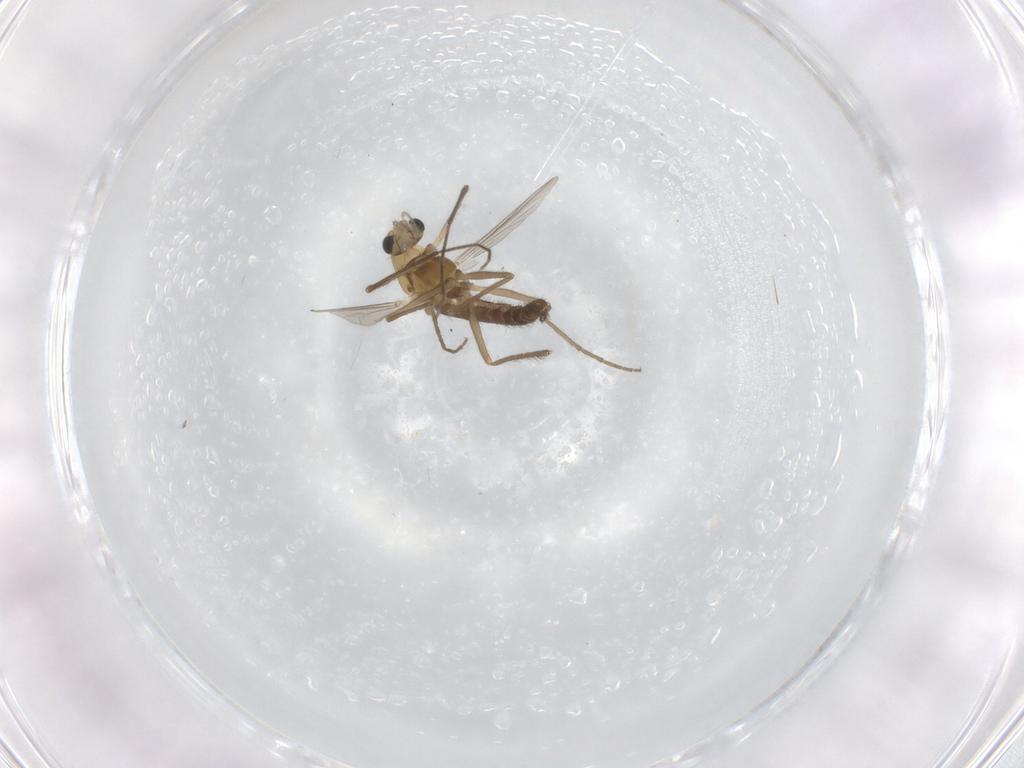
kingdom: Animalia
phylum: Arthropoda
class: Insecta
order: Diptera
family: Chironomidae
